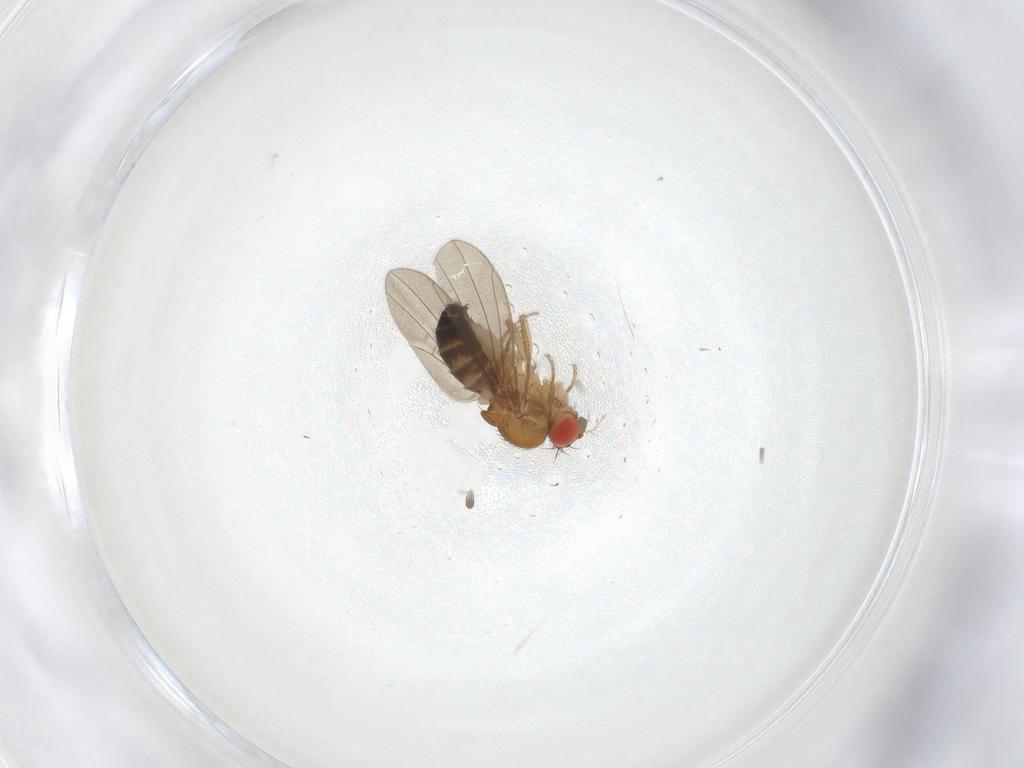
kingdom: Animalia
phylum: Arthropoda
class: Insecta
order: Diptera
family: Drosophilidae
